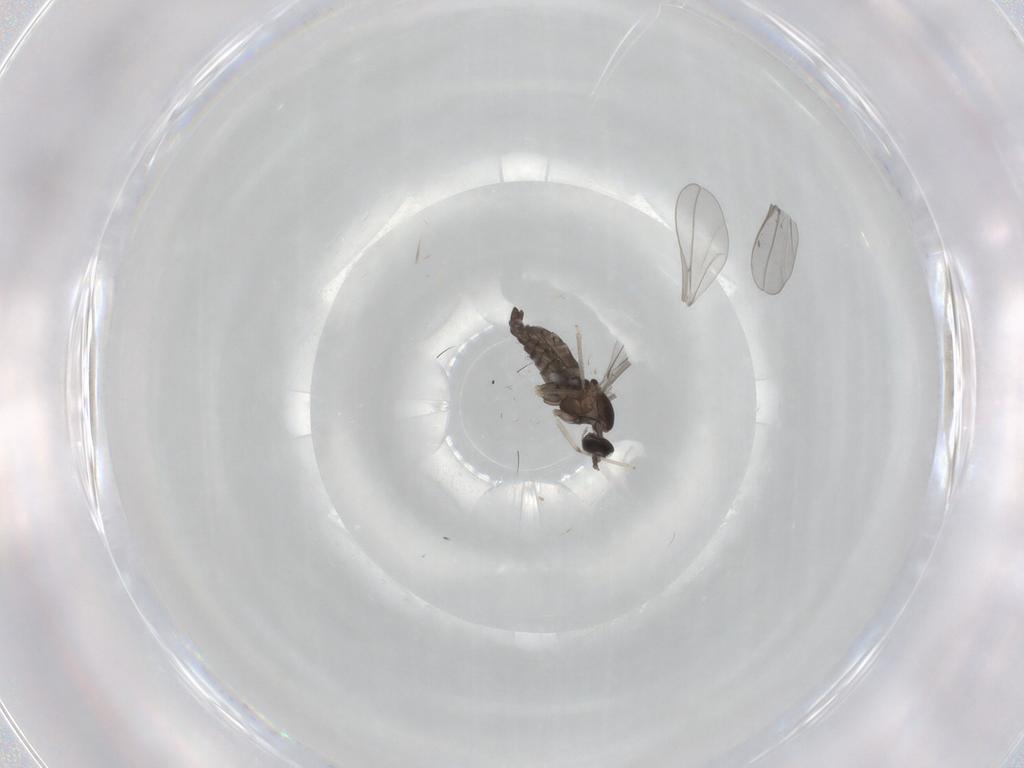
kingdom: Animalia
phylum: Arthropoda
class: Insecta
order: Diptera
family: Cecidomyiidae
